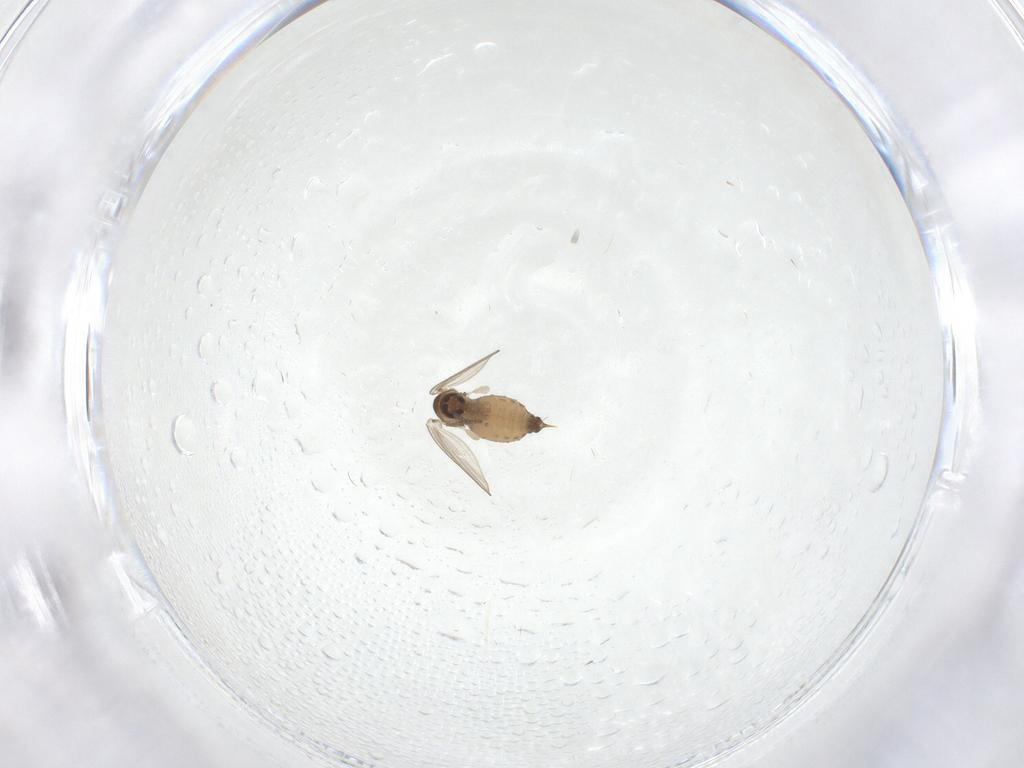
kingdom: Animalia
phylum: Arthropoda
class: Insecta
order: Diptera
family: Psychodidae
